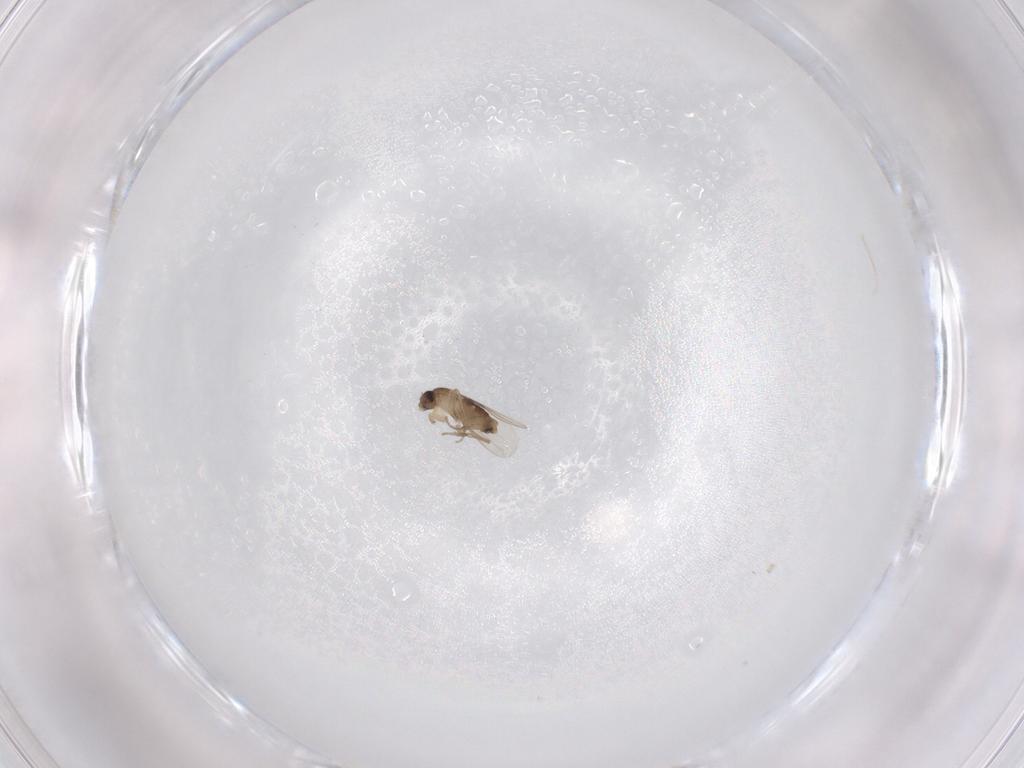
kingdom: Animalia
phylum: Arthropoda
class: Insecta
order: Diptera
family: Phoridae
